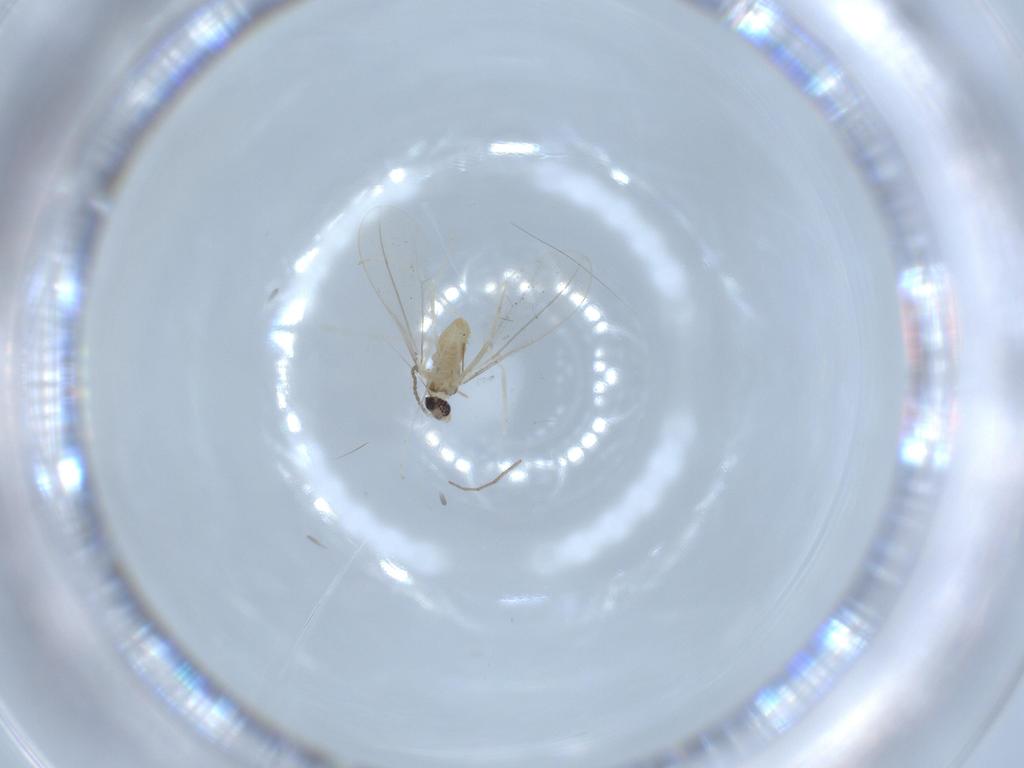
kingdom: Animalia
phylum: Arthropoda
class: Insecta
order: Diptera
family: Cecidomyiidae
